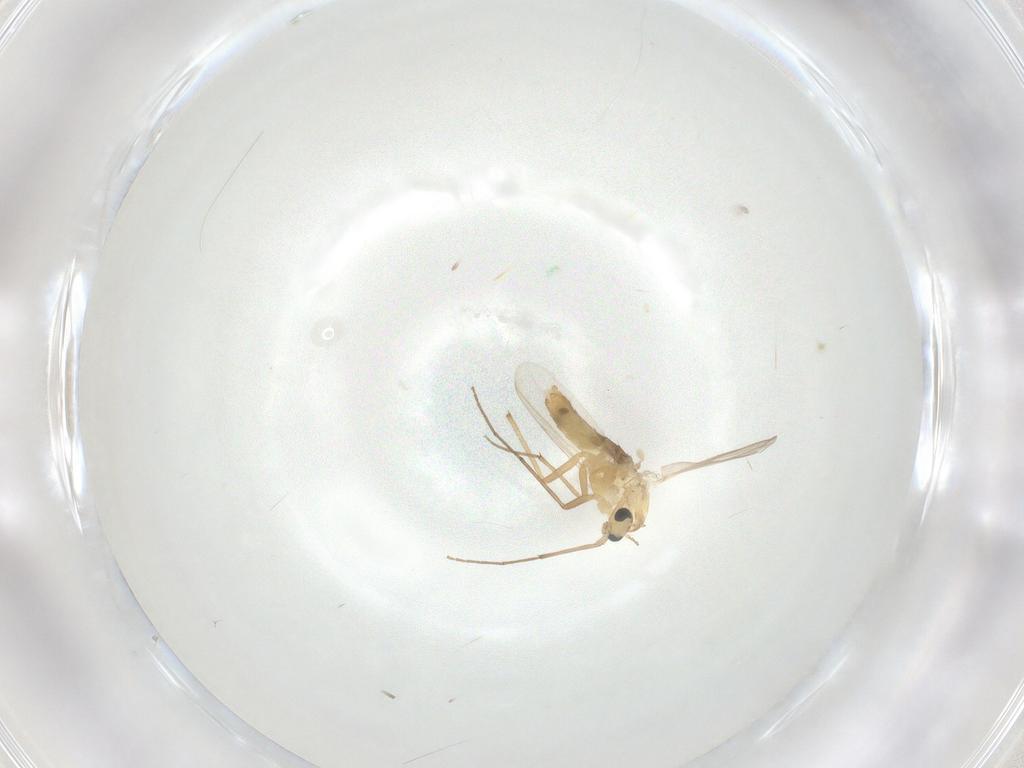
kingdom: Animalia
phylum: Arthropoda
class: Insecta
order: Diptera
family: Chironomidae
